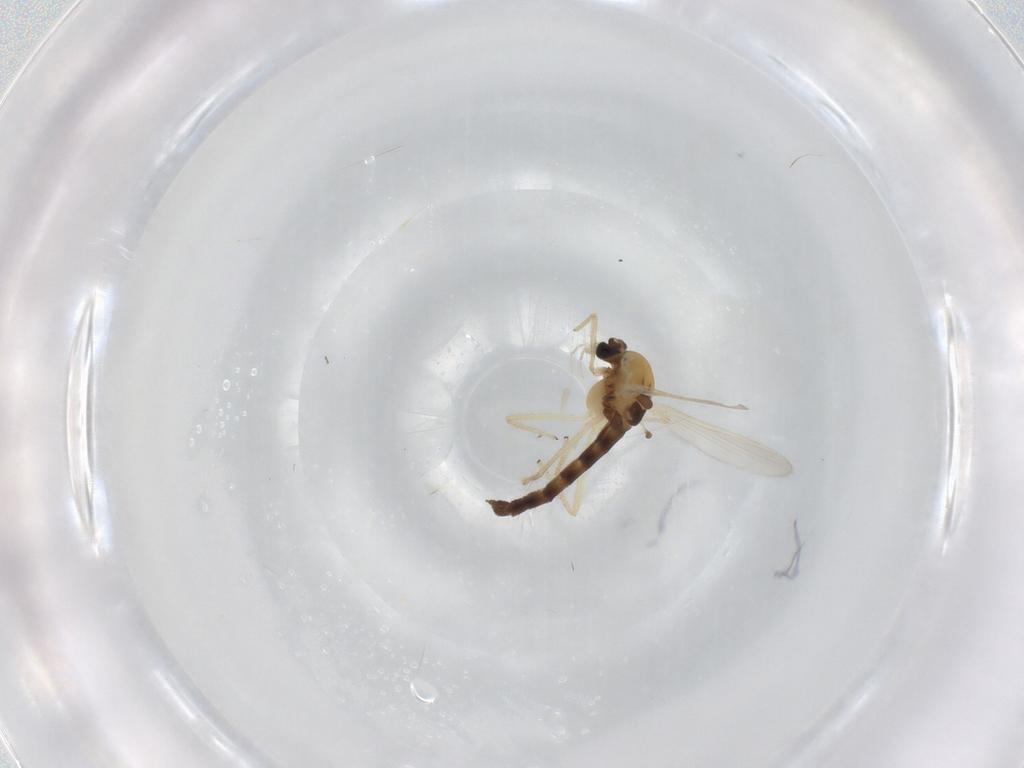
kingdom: Animalia
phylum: Arthropoda
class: Insecta
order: Diptera
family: Chironomidae
